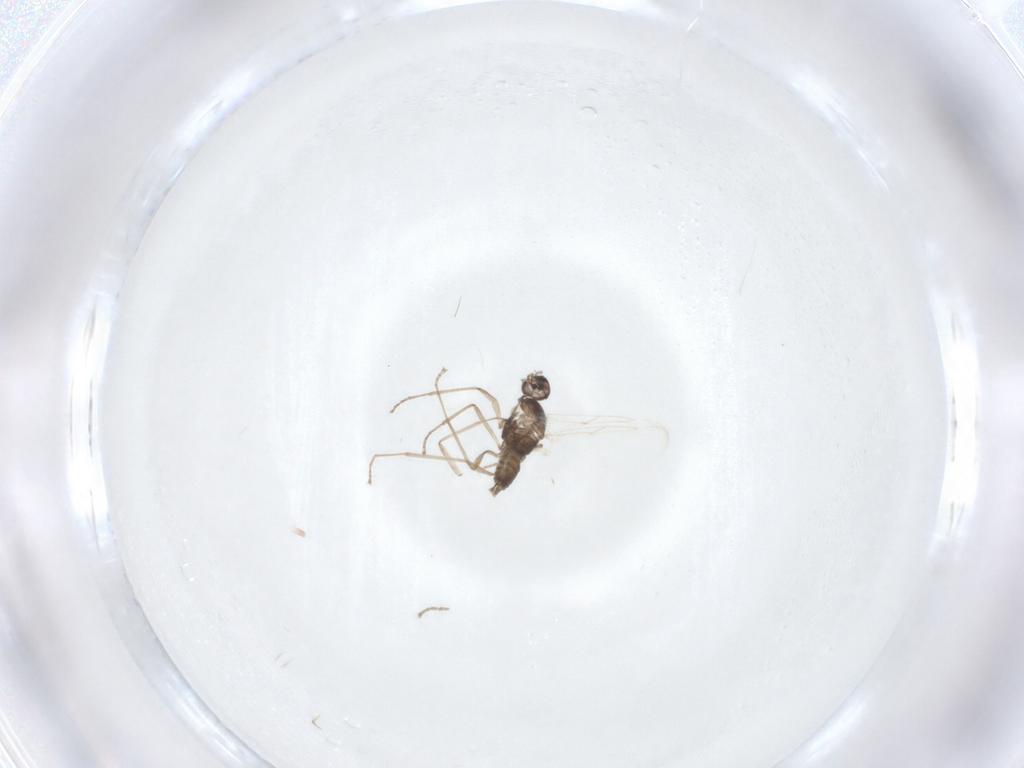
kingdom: Animalia
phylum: Arthropoda
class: Insecta
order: Diptera
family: Cecidomyiidae
